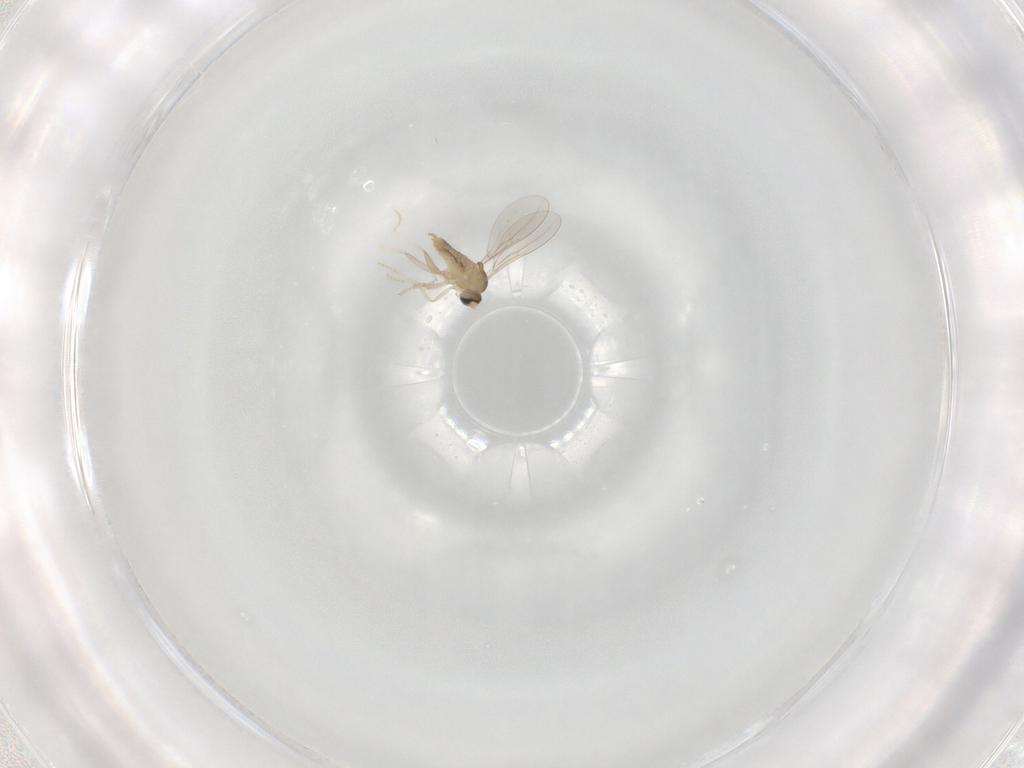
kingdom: Animalia
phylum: Arthropoda
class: Insecta
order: Diptera
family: Cecidomyiidae
